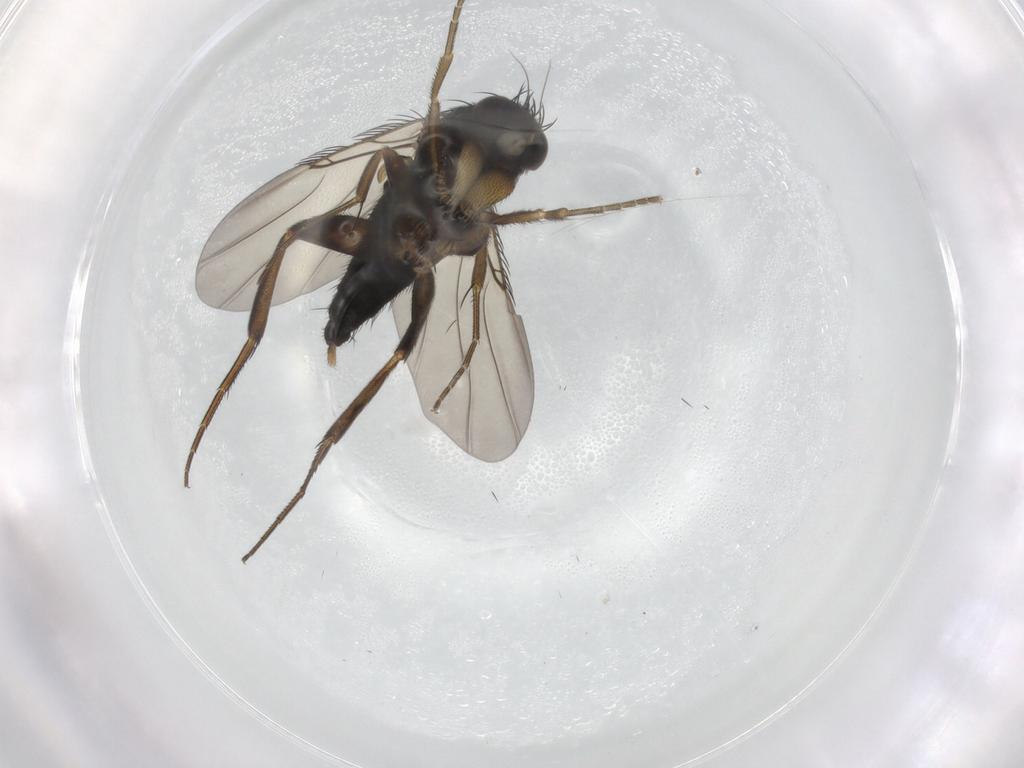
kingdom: Animalia
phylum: Arthropoda
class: Insecta
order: Diptera
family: Phoridae
